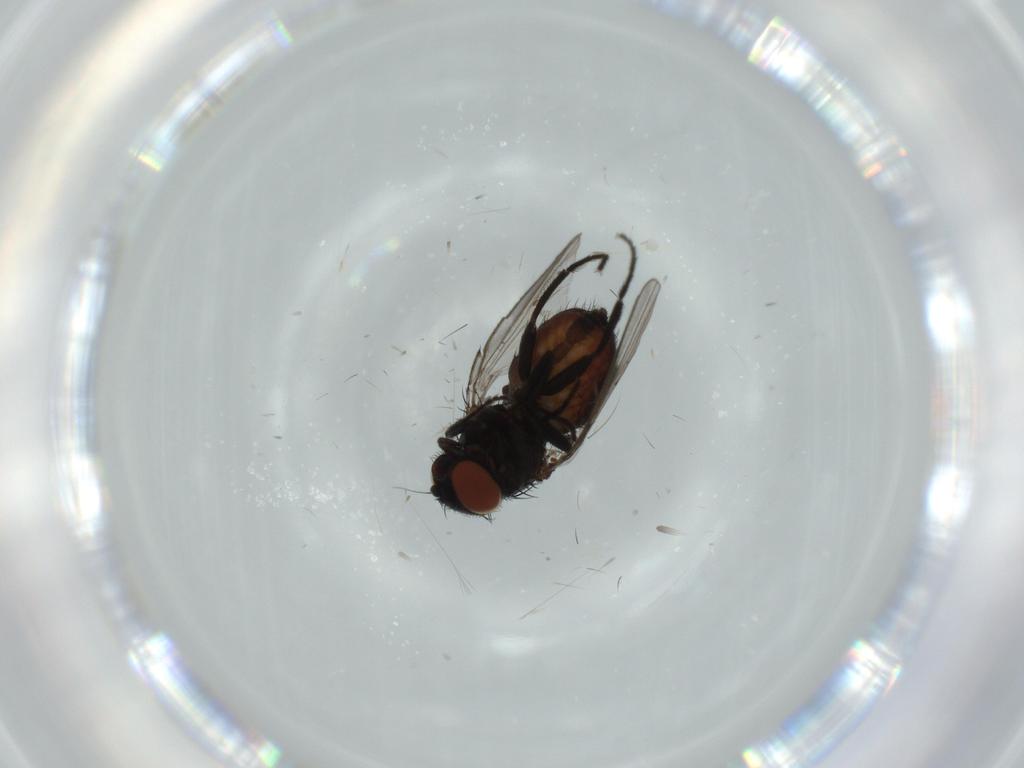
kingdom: Animalia
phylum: Arthropoda
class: Insecta
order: Diptera
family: Milichiidae
